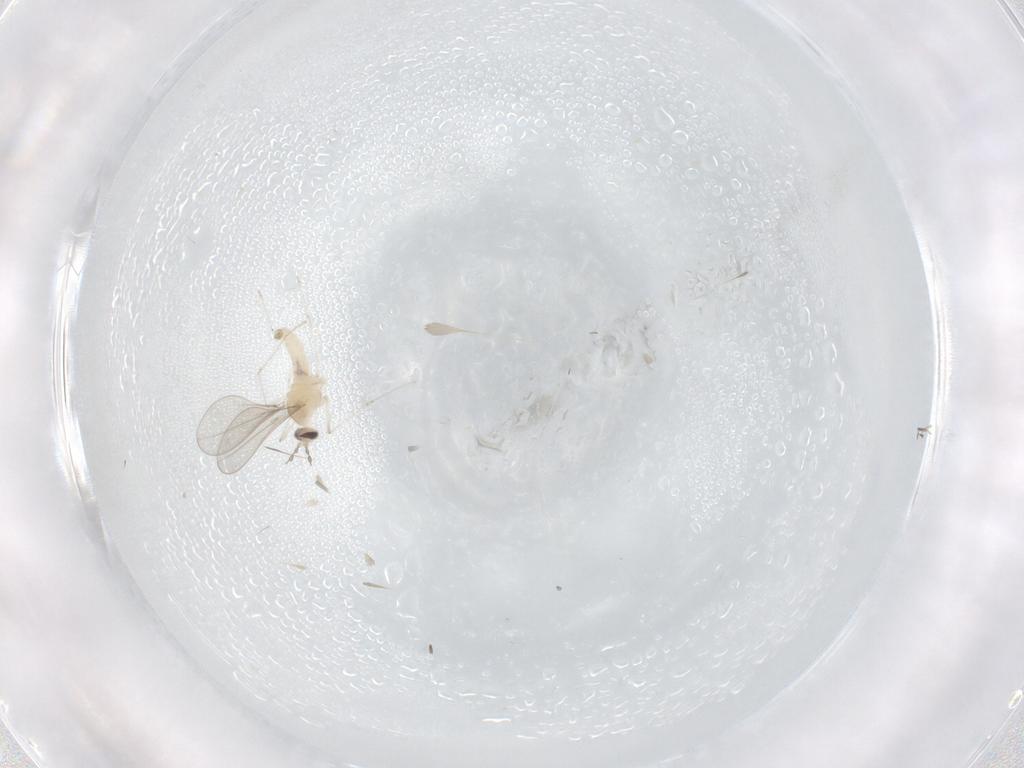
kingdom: Animalia
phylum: Arthropoda
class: Insecta
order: Diptera
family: Cecidomyiidae
